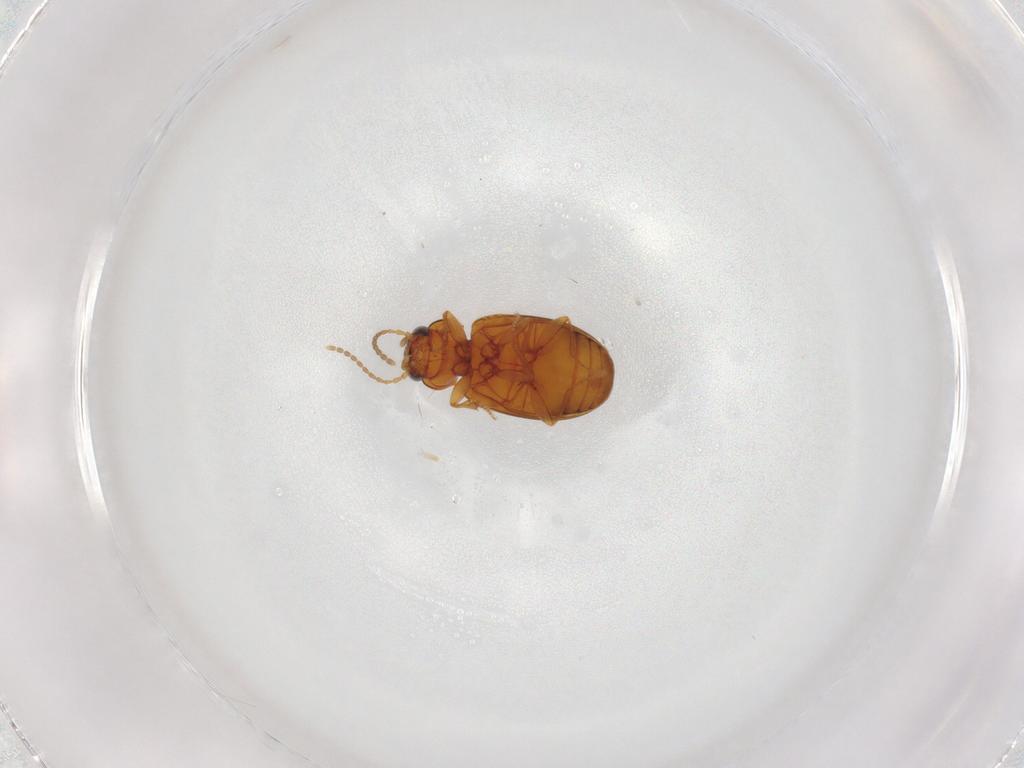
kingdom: Animalia
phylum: Arthropoda
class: Insecta
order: Coleoptera
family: Carabidae
